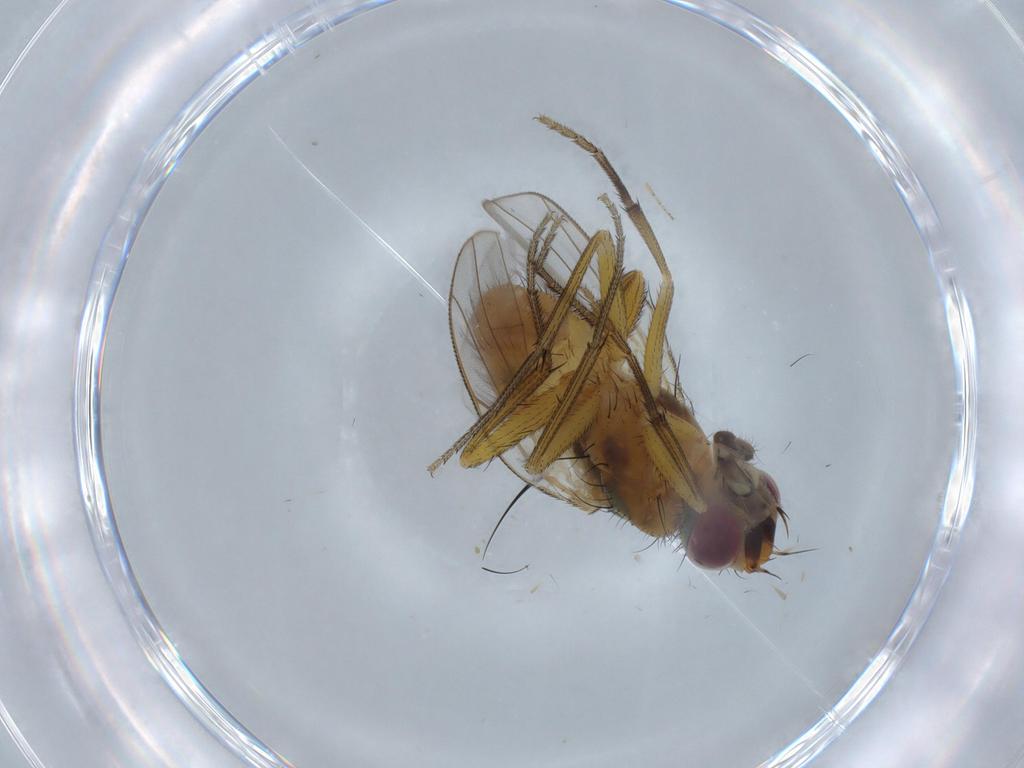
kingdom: Animalia
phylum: Arthropoda
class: Insecta
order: Diptera
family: Muscidae
